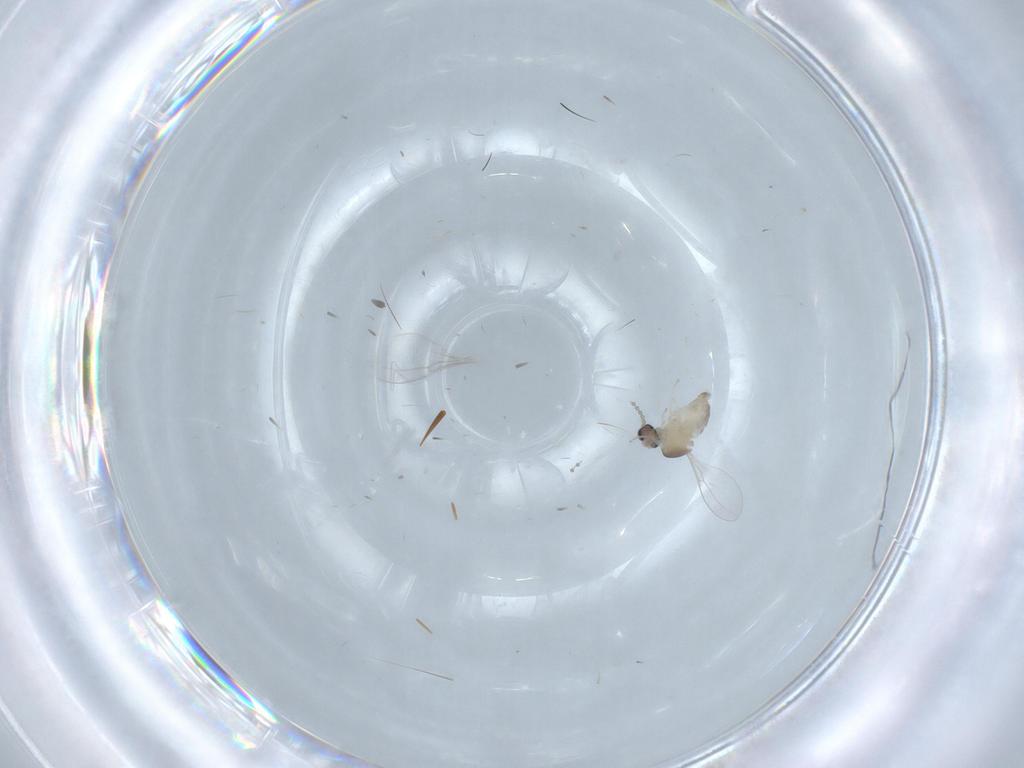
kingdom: Animalia
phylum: Arthropoda
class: Insecta
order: Diptera
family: Cecidomyiidae
